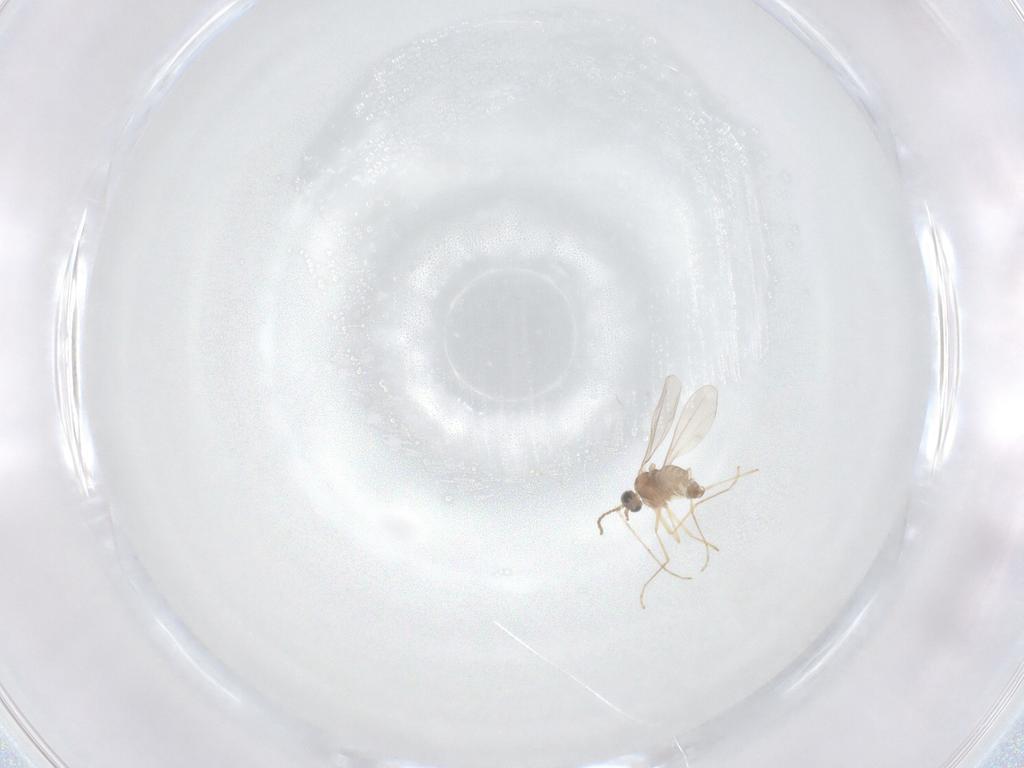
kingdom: Animalia
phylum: Arthropoda
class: Insecta
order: Diptera
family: Cecidomyiidae
